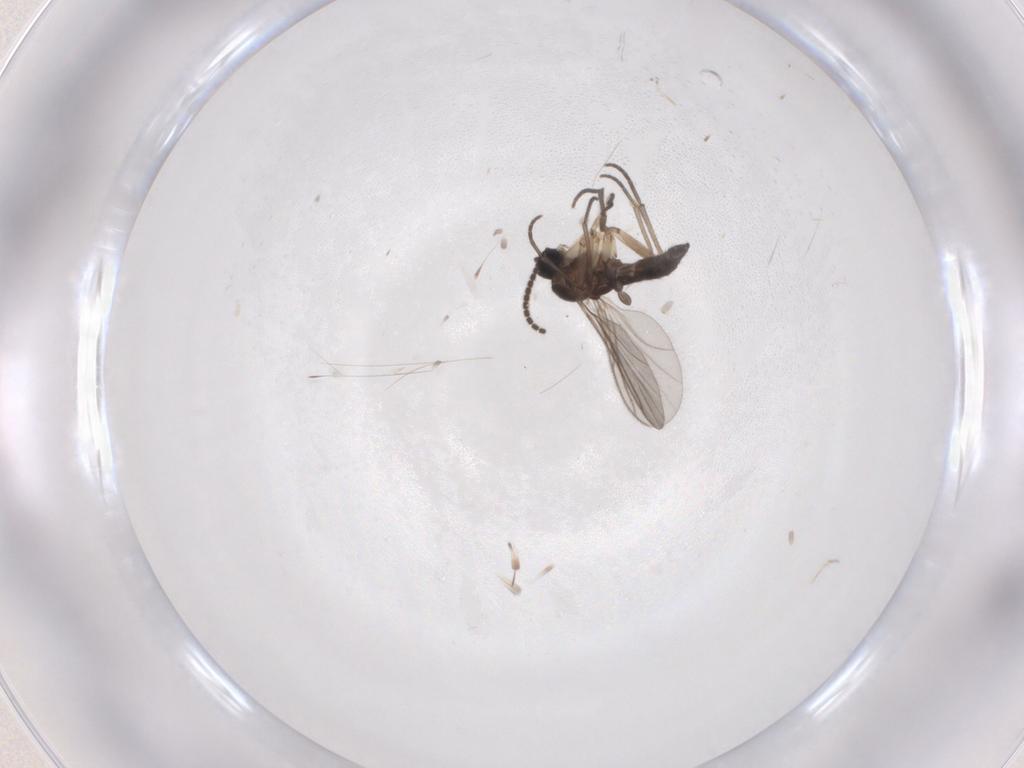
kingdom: Animalia
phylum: Arthropoda
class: Insecta
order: Diptera
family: Sciaridae
